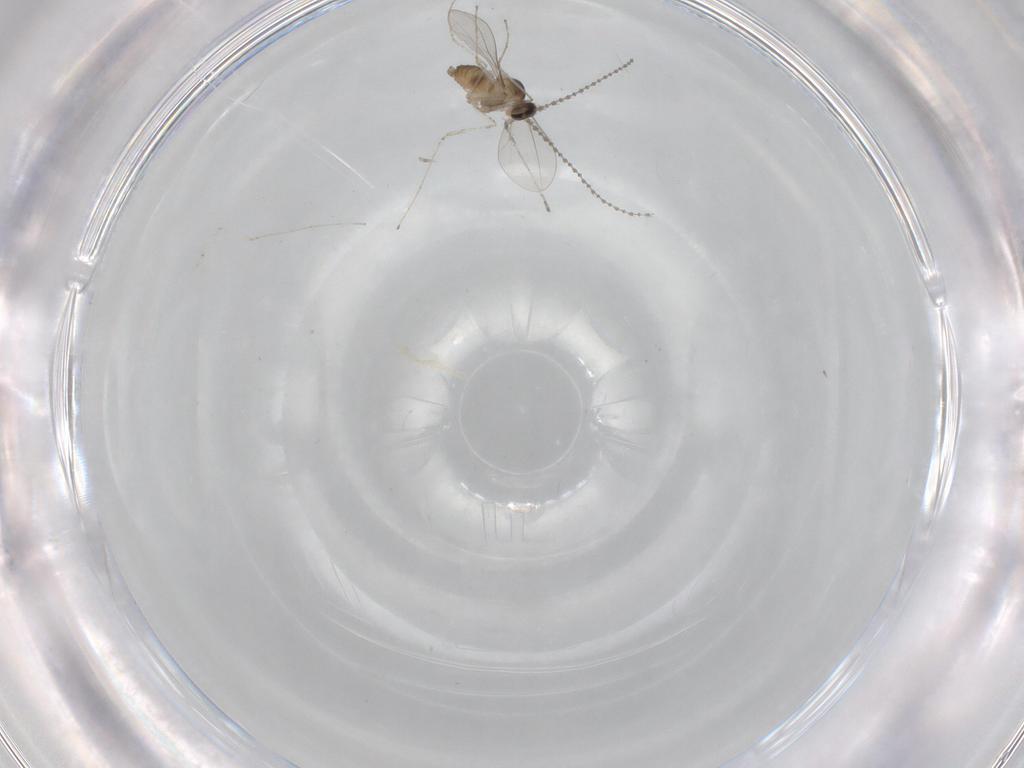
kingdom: Animalia
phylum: Arthropoda
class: Insecta
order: Diptera
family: Cecidomyiidae
